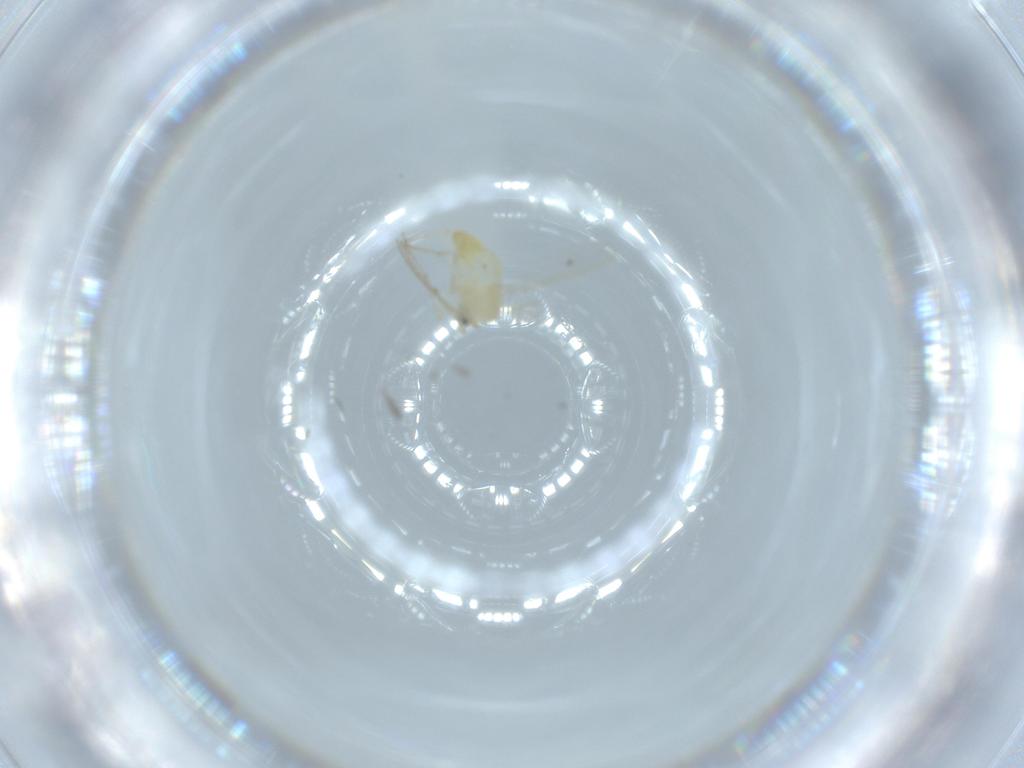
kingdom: Animalia
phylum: Arthropoda
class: Insecta
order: Diptera
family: Chironomidae
